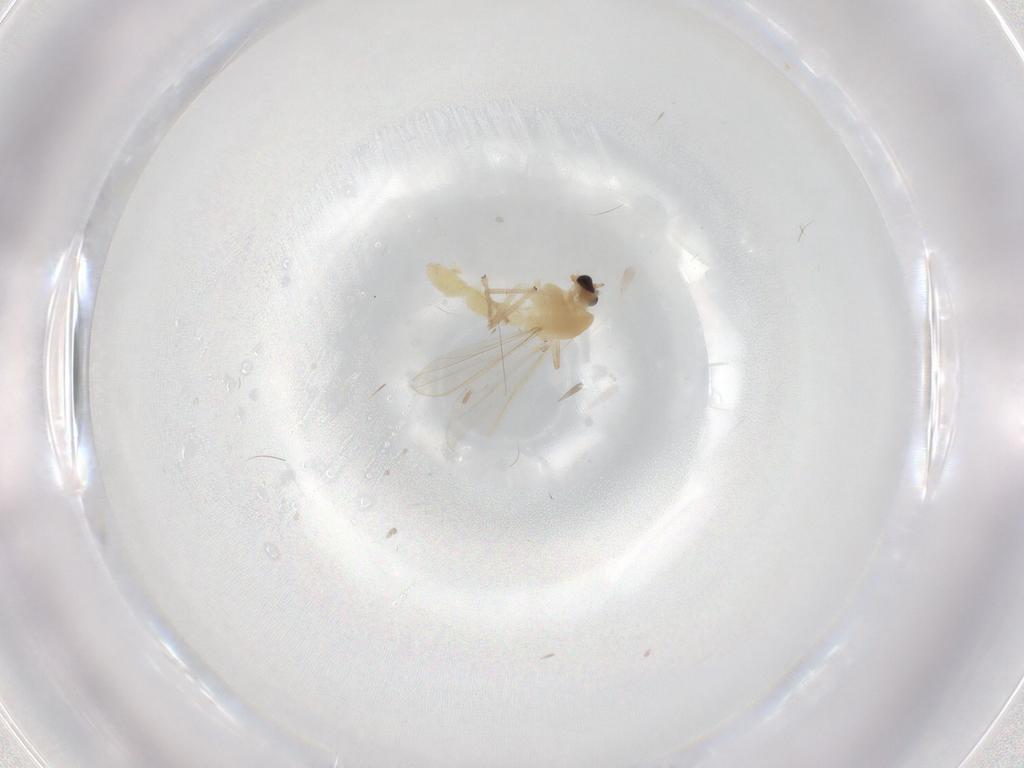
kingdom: Animalia
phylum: Arthropoda
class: Insecta
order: Diptera
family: Chironomidae
